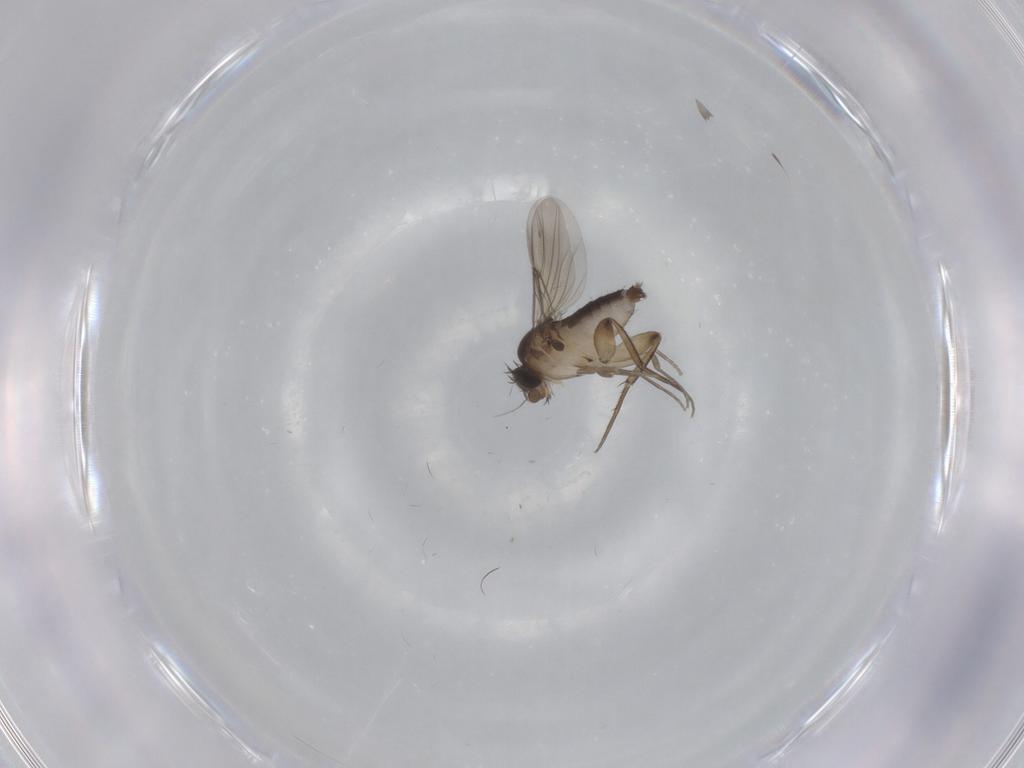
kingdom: Animalia
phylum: Arthropoda
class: Insecta
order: Diptera
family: Phoridae
